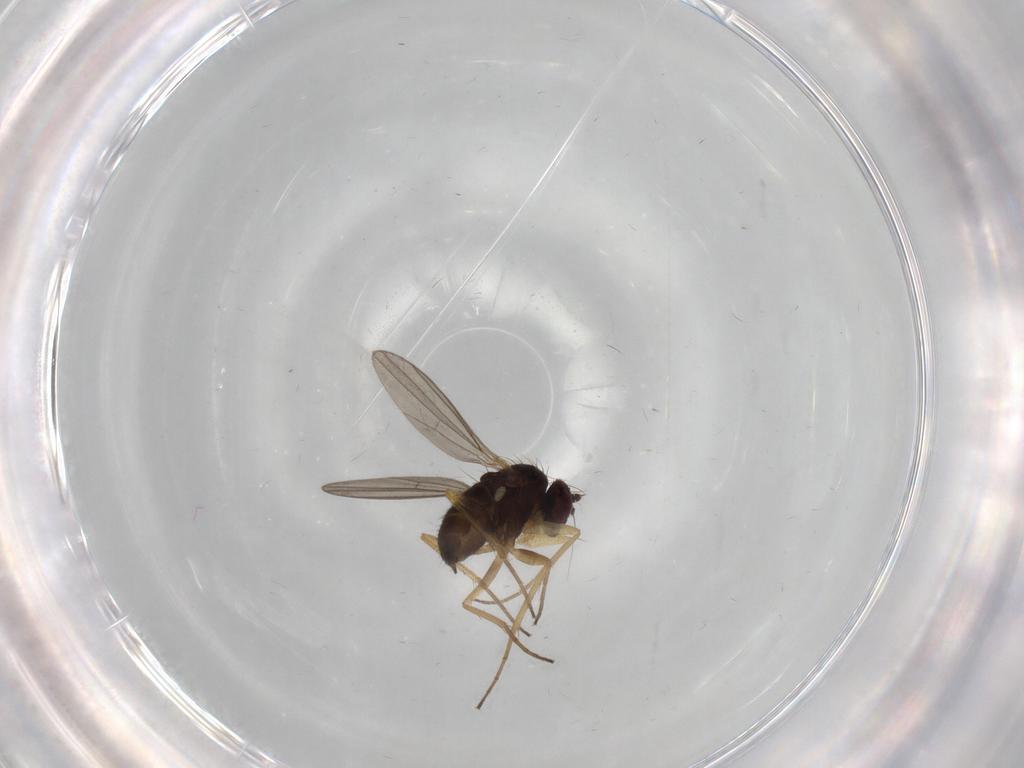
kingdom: Animalia
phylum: Arthropoda
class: Insecta
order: Diptera
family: Dolichopodidae
